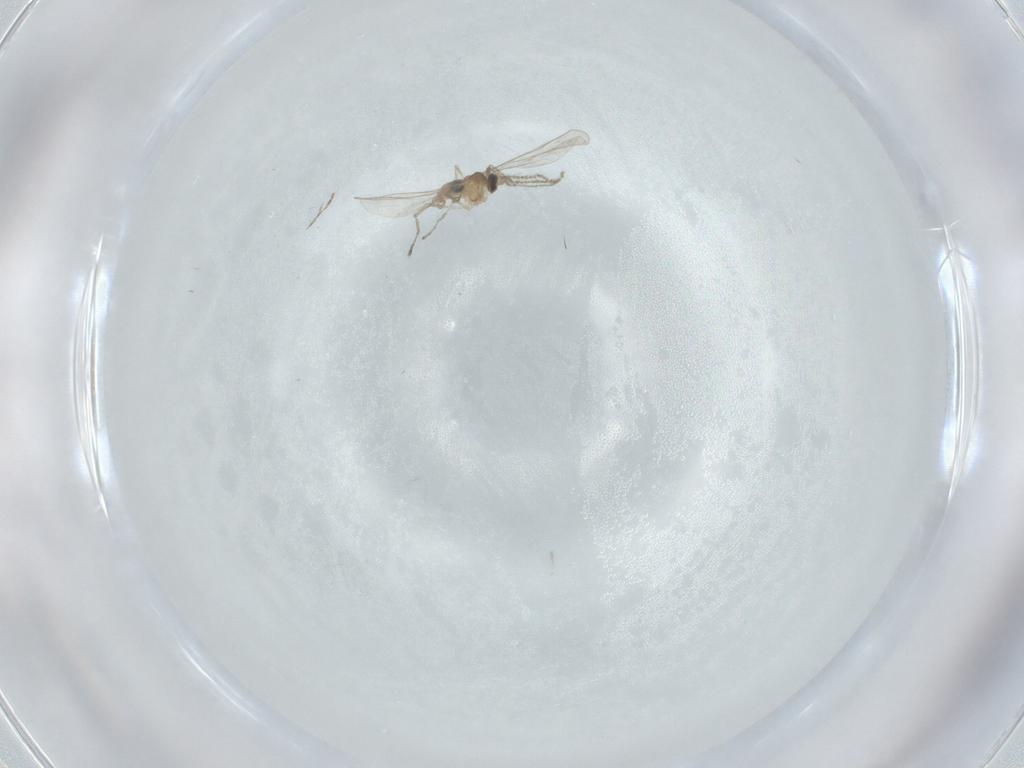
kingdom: Animalia
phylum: Arthropoda
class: Insecta
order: Diptera
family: Cecidomyiidae
